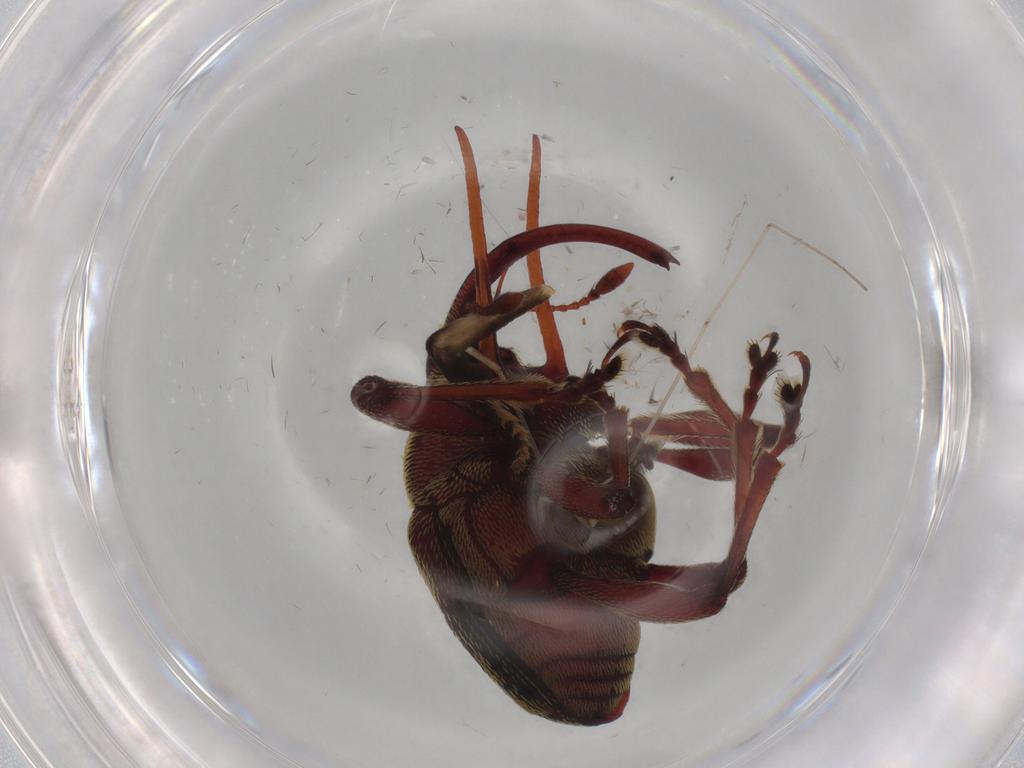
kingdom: Animalia
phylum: Arthropoda
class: Insecta
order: Coleoptera
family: Curculionidae
